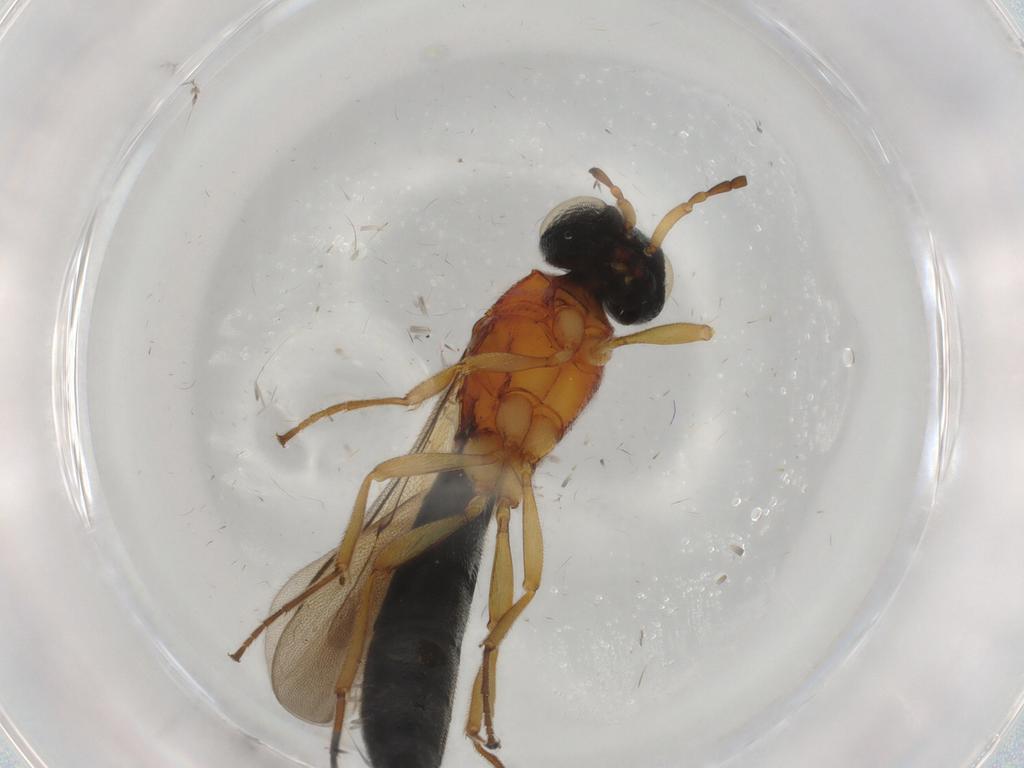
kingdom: Animalia
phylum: Arthropoda
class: Insecta
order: Hymenoptera
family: Scelionidae
